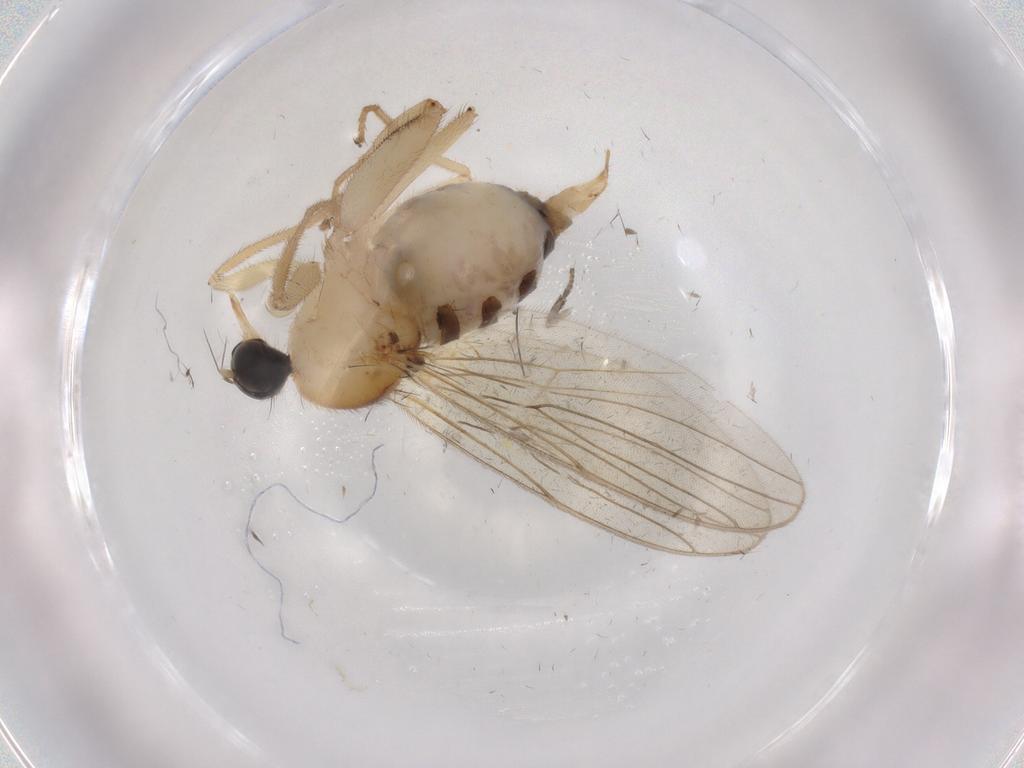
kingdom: Animalia
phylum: Arthropoda
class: Insecta
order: Diptera
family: Hybotidae
